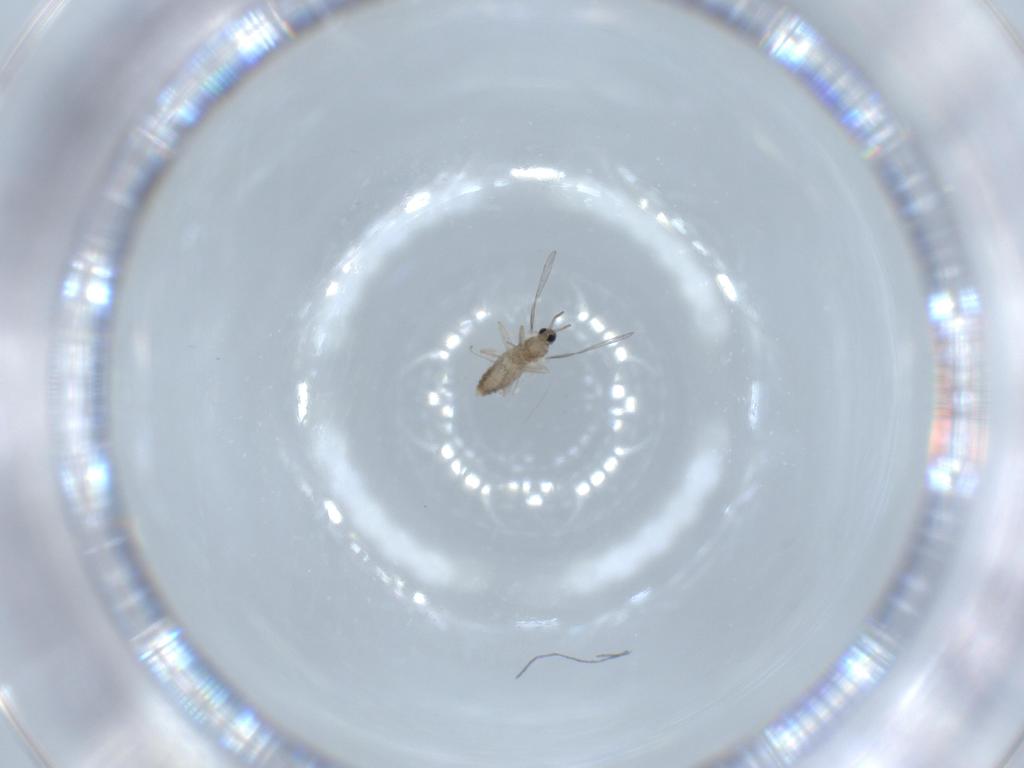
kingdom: Animalia
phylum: Arthropoda
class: Insecta
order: Diptera
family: Cecidomyiidae
